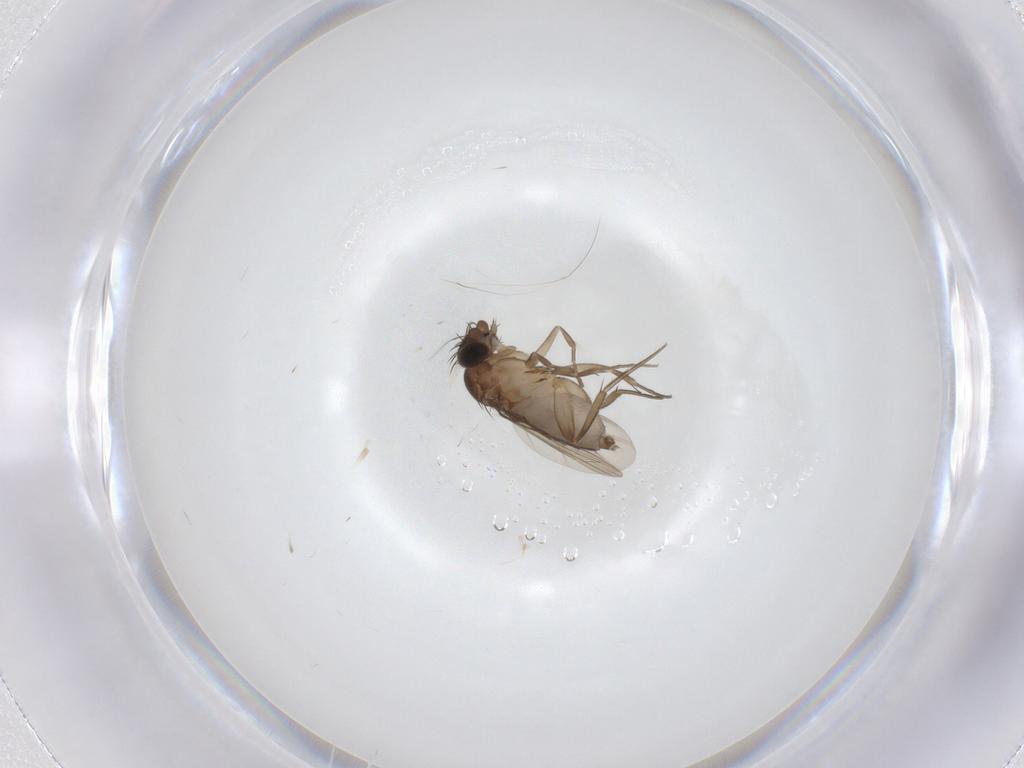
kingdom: Animalia
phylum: Arthropoda
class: Insecta
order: Diptera
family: Phoridae
